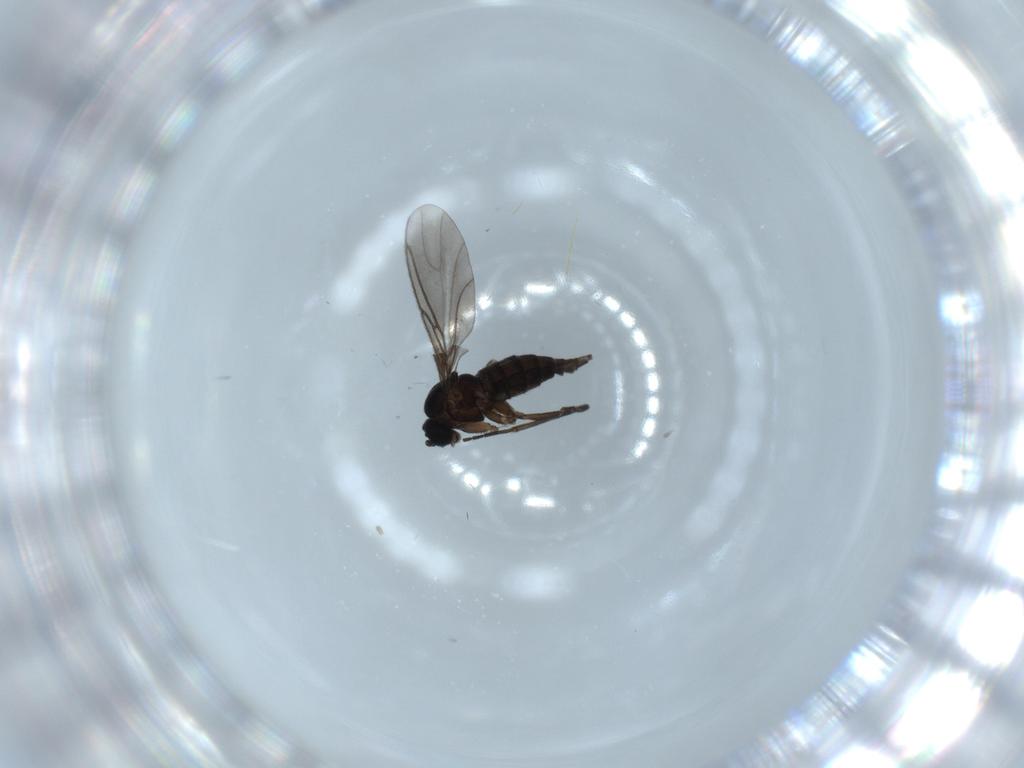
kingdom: Animalia
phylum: Arthropoda
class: Insecta
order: Diptera
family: Sciaridae
